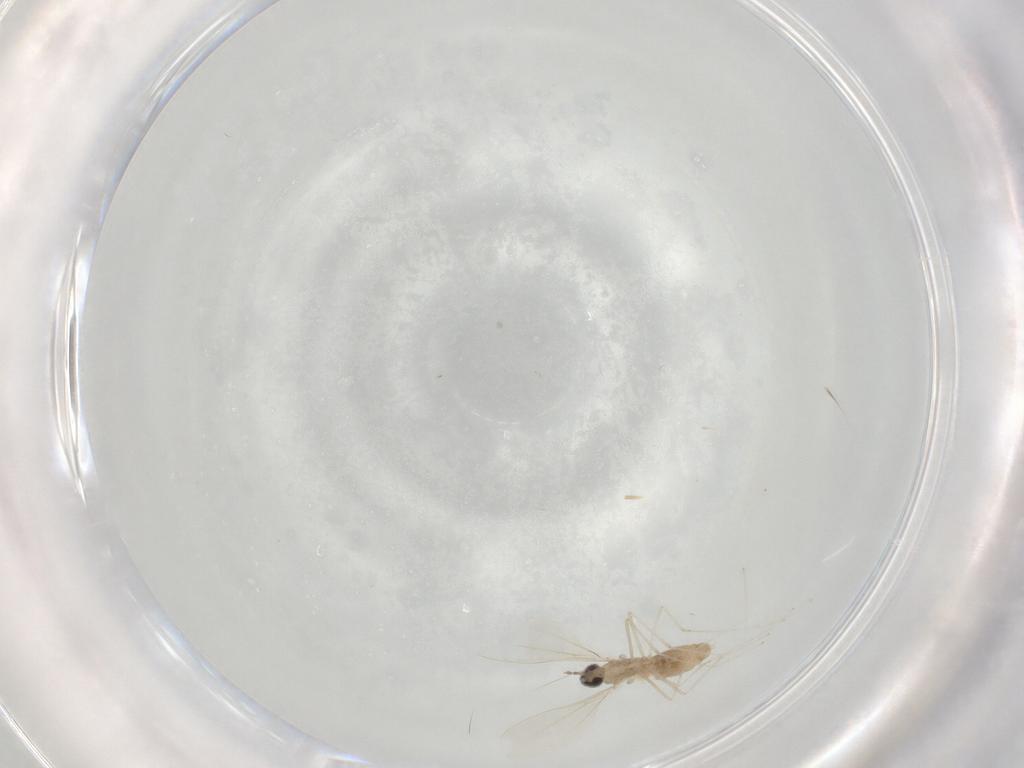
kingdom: Animalia
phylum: Arthropoda
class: Insecta
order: Diptera
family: Cecidomyiidae
